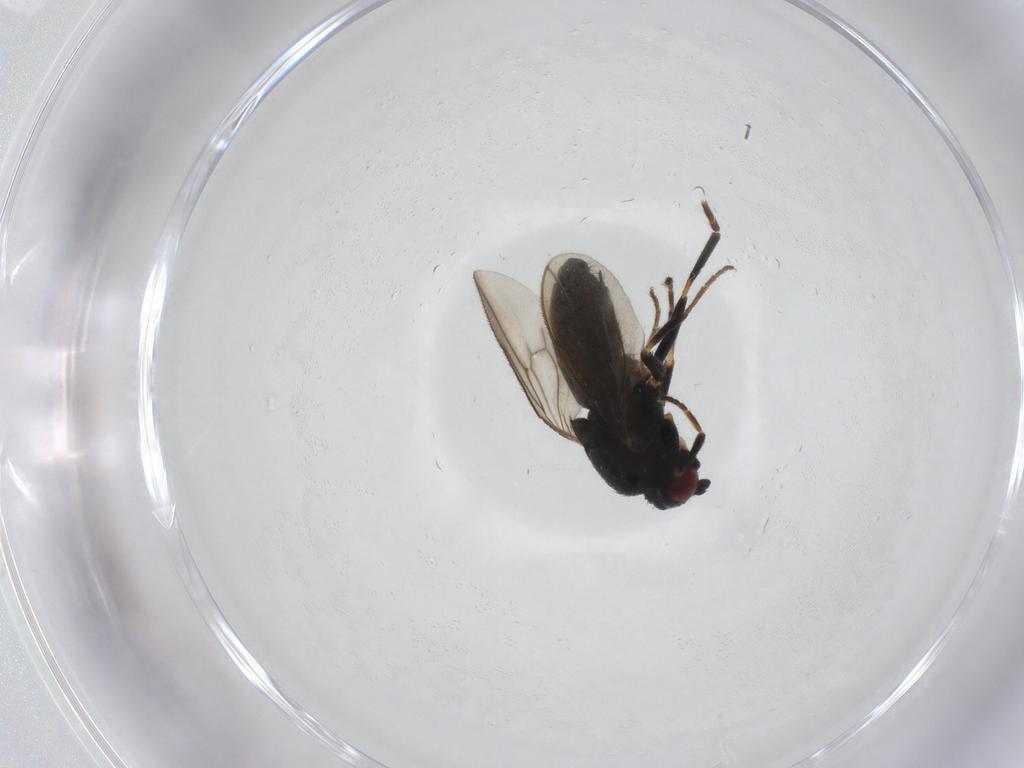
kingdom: Animalia
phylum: Arthropoda
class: Insecta
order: Diptera
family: Sphaeroceridae
